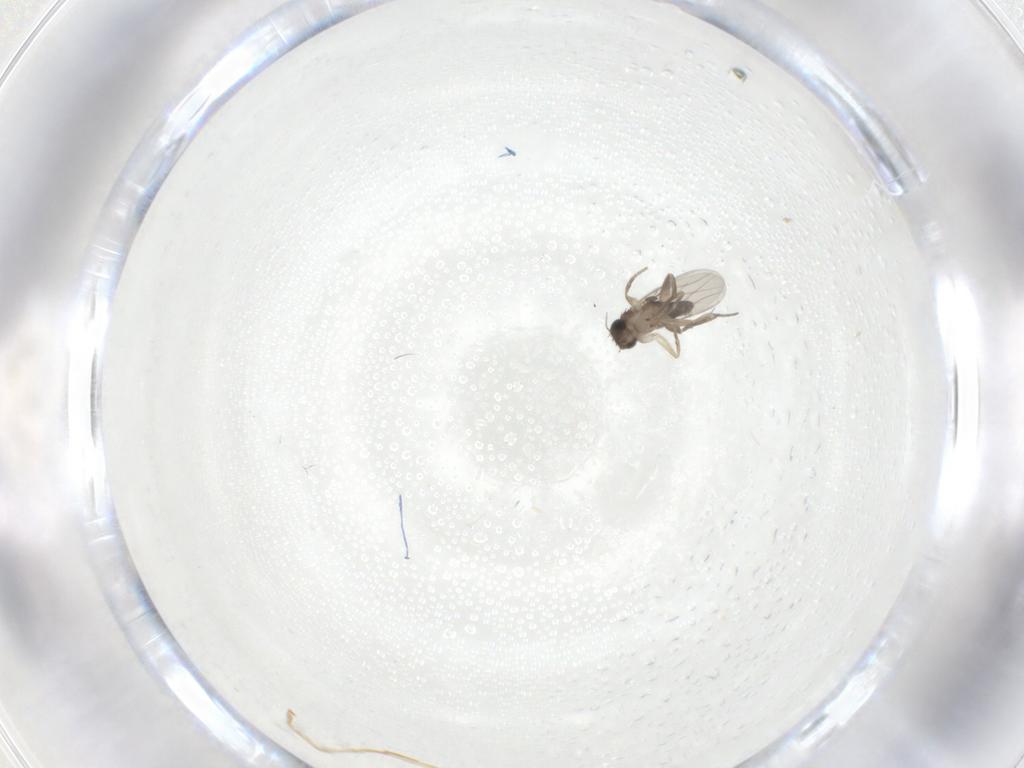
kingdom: Animalia
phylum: Arthropoda
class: Insecta
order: Diptera
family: Phoridae
